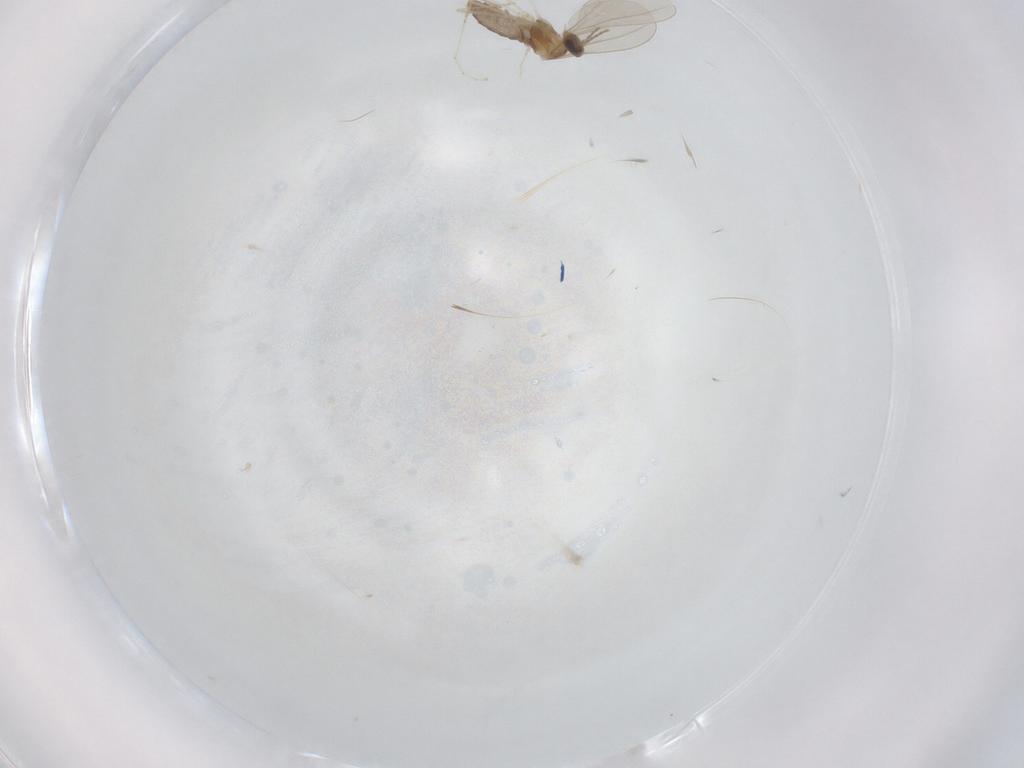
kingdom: Animalia
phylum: Arthropoda
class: Insecta
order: Diptera
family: Cecidomyiidae
